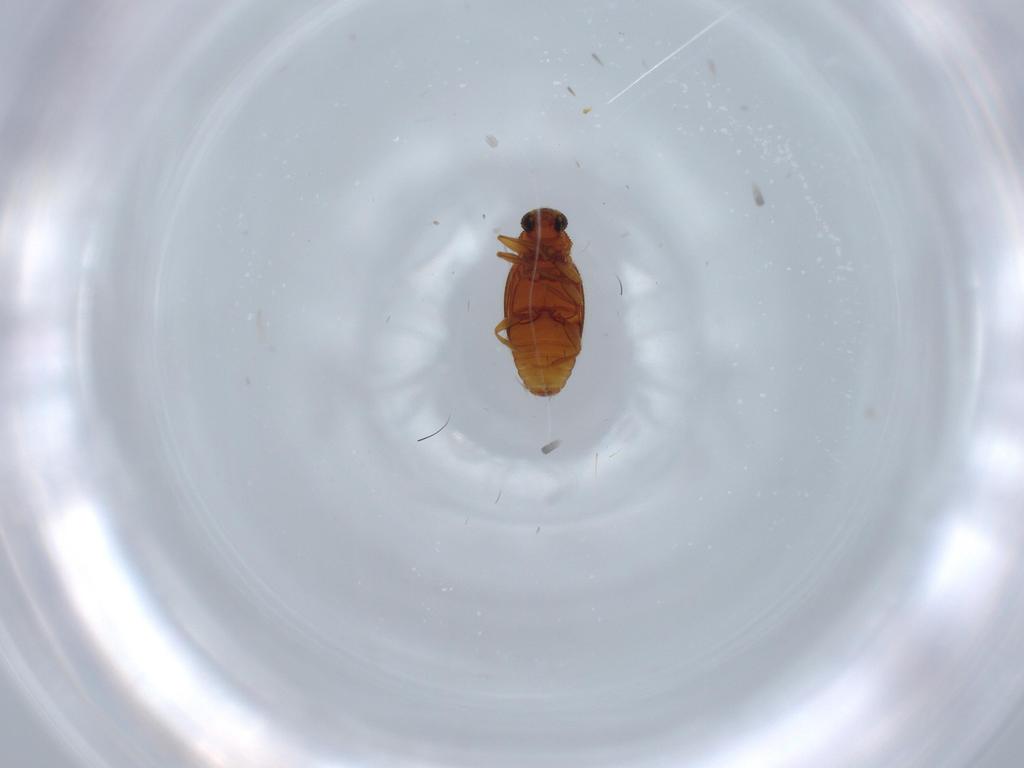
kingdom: Animalia
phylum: Arthropoda
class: Insecta
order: Coleoptera
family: Latridiidae
